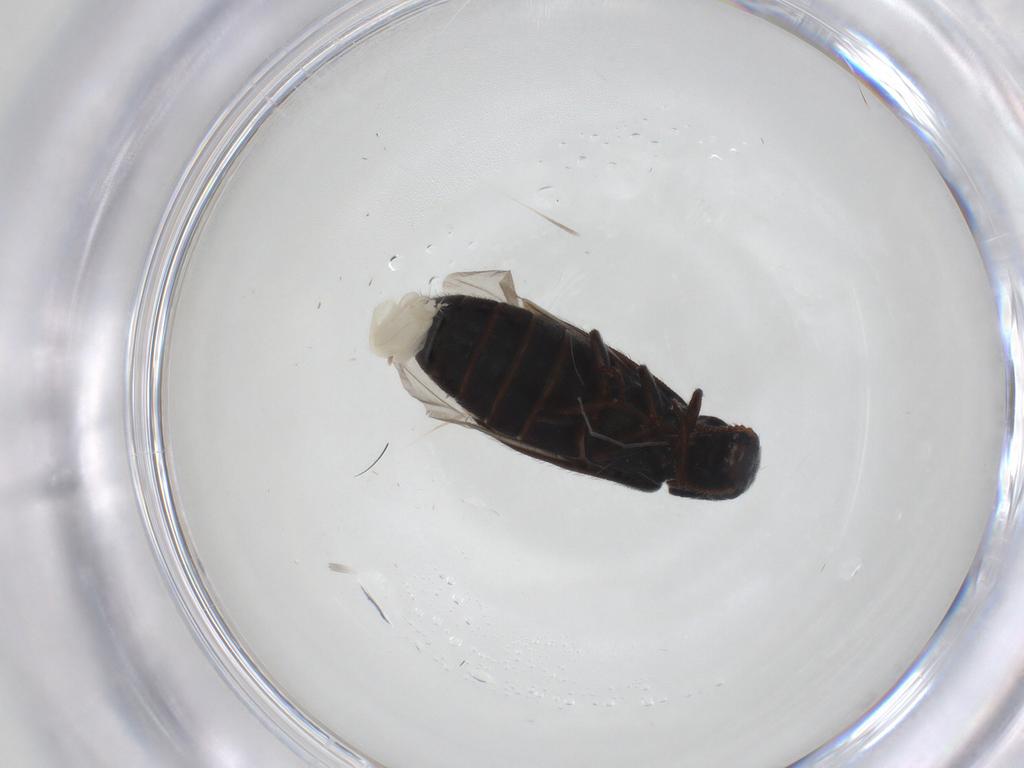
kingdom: Animalia
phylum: Arthropoda
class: Insecta
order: Coleoptera
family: Melyridae
